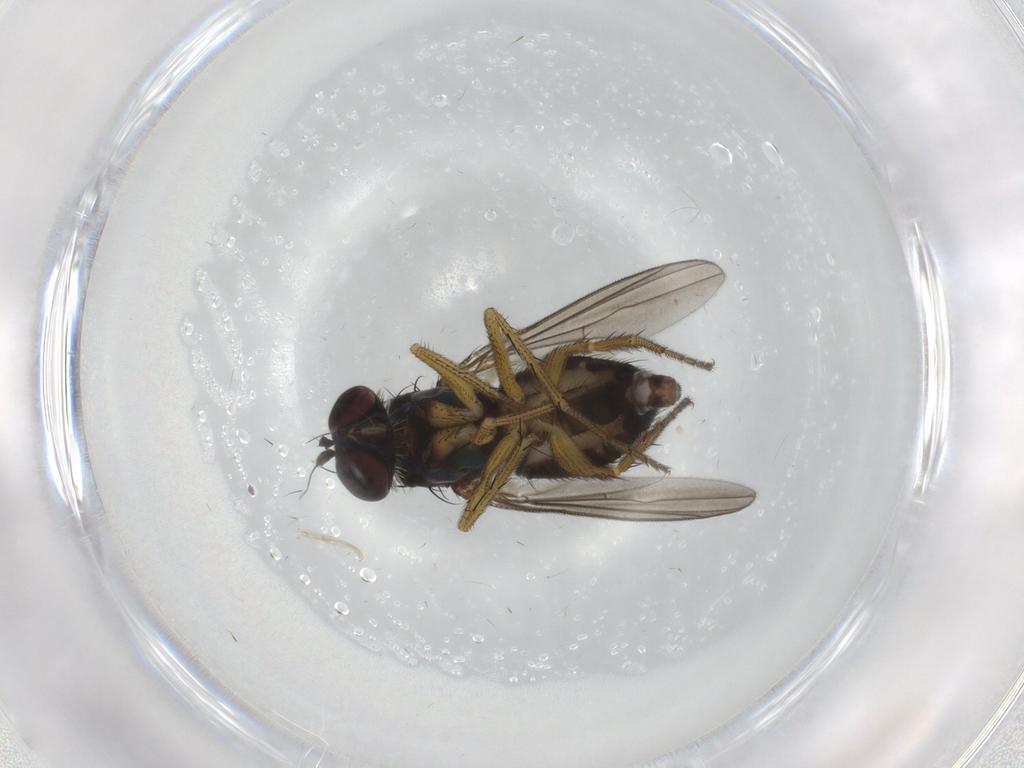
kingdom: Animalia
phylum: Arthropoda
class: Insecta
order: Diptera
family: Dolichopodidae
